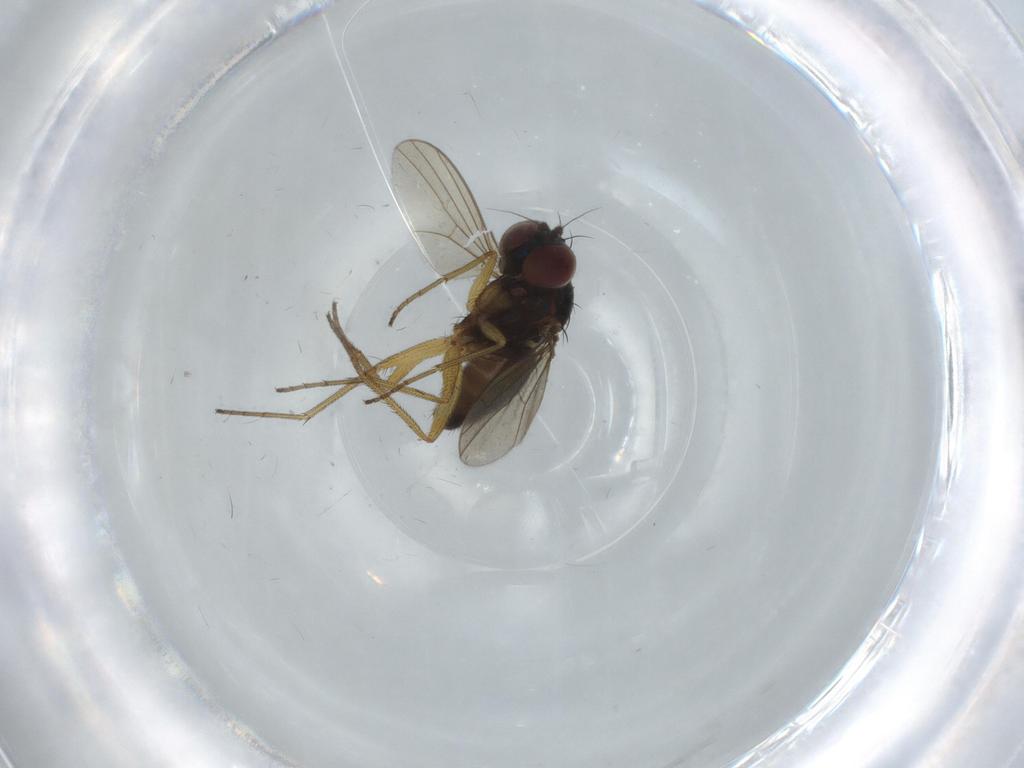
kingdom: Animalia
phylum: Arthropoda
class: Insecta
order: Diptera
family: Dolichopodidae
